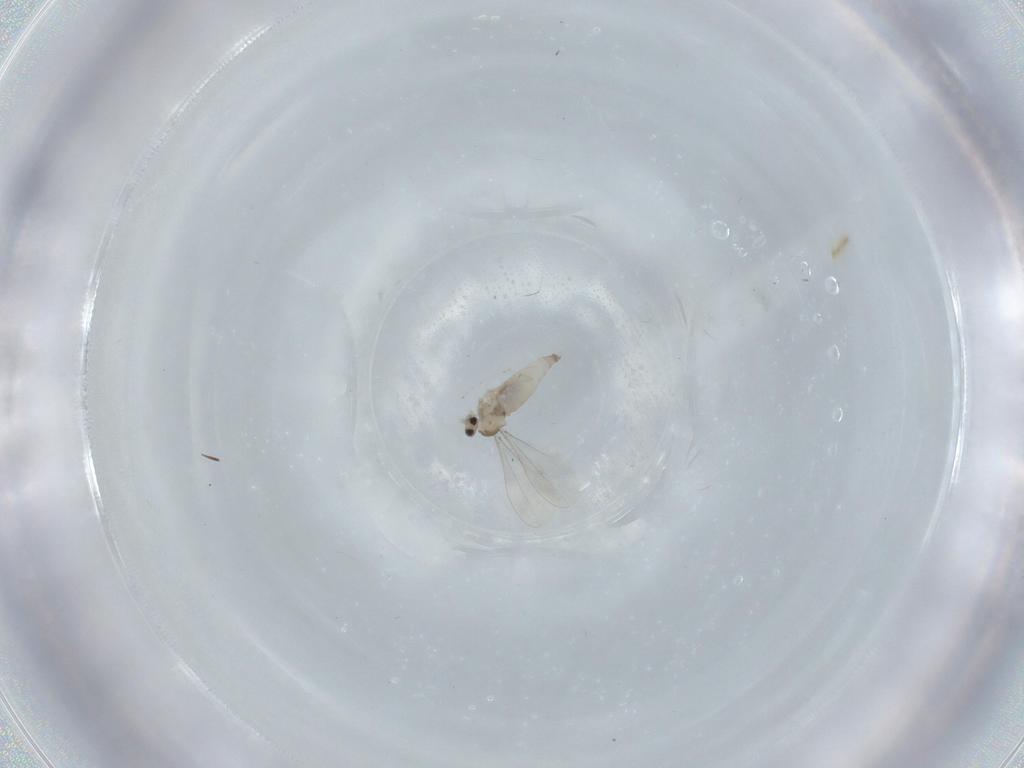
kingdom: Animalia
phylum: Arthropoda
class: Insecta
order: Diptera
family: Cecidomyiidae
